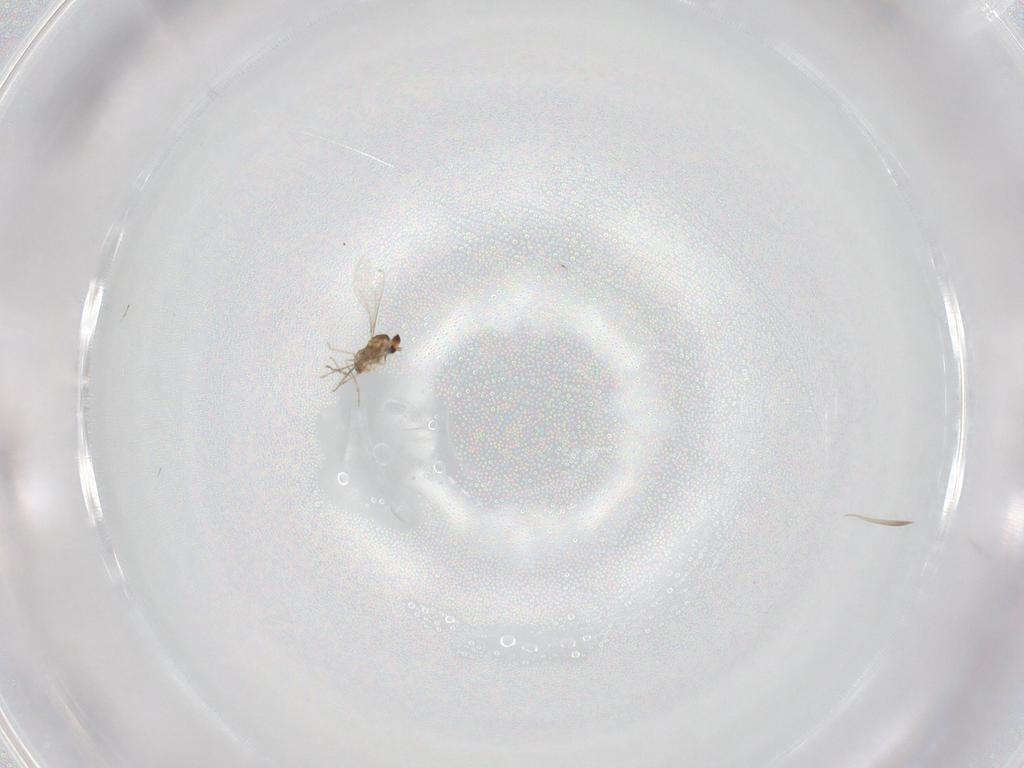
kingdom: Animalia
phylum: Arthropoda
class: Insecta
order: Diptera
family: Cecidomyiidae
